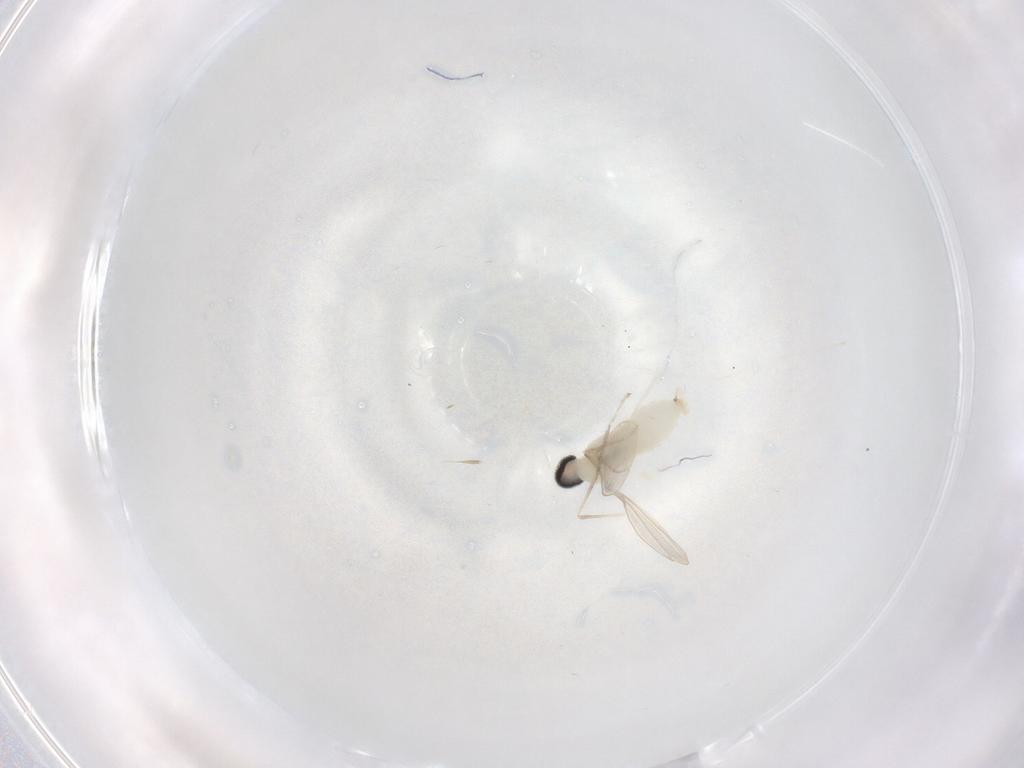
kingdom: Animalia
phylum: Arthropoda
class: Insecta
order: Diptera
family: Cecidomyiidae
